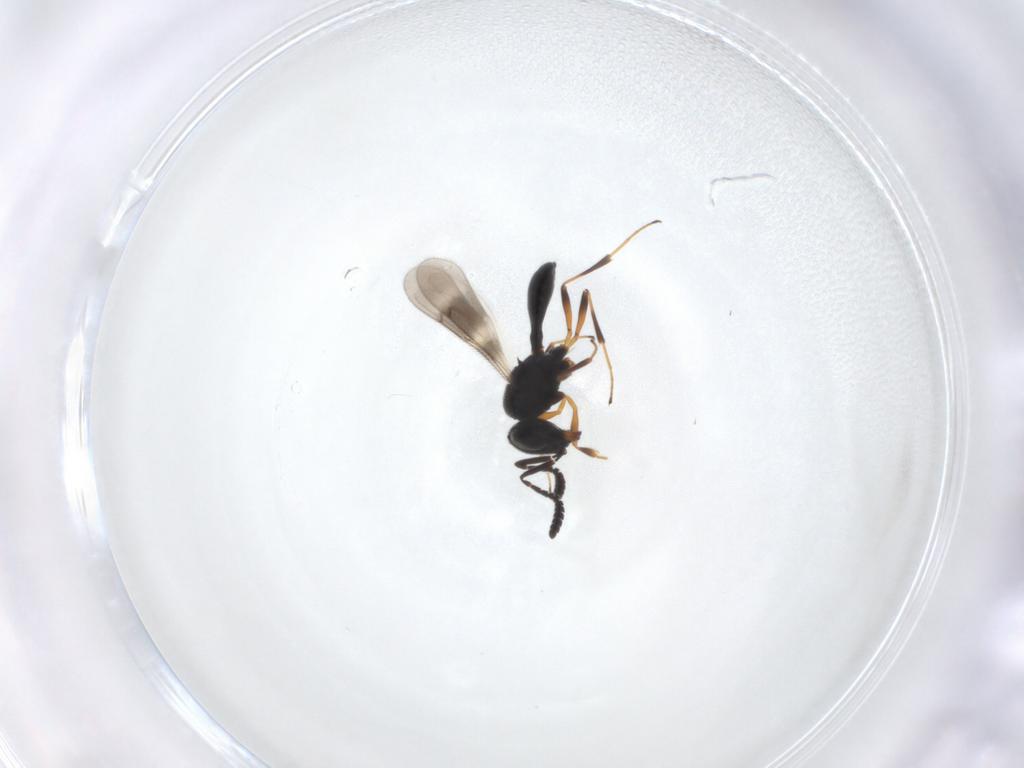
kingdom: Animalia
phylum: Arthropoda
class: Insecta
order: Hymenoptera
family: Scelionidae
